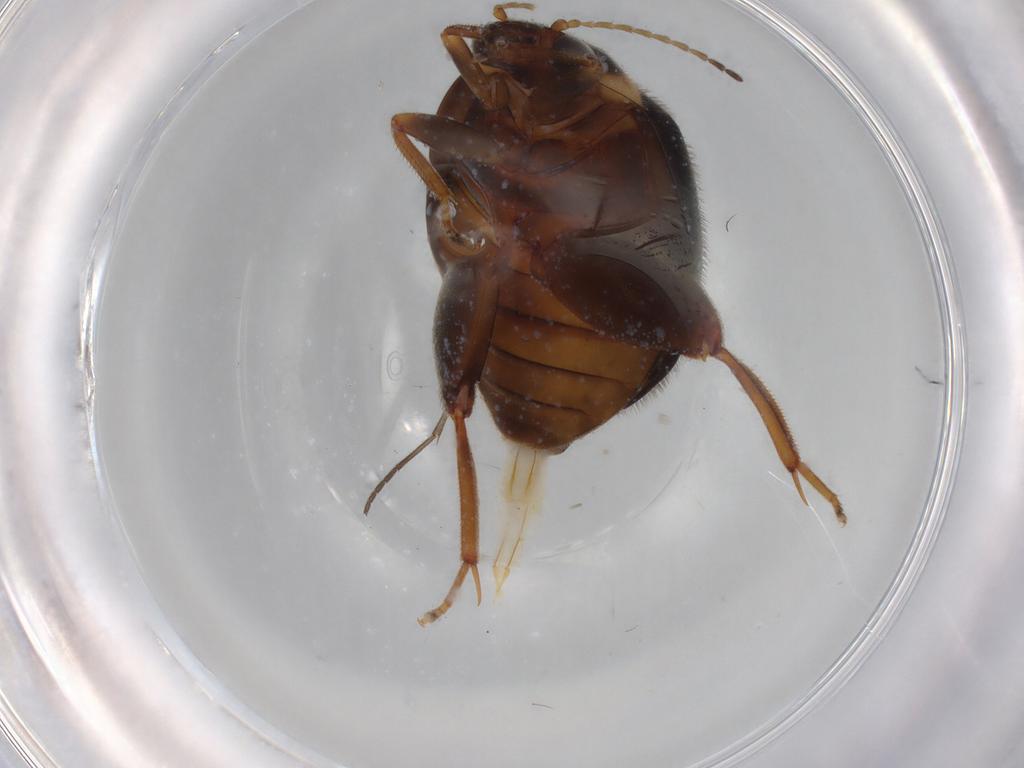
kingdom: Animalia
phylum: Arthropoda
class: Insecta
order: Coleoptera
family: Scirtidae
